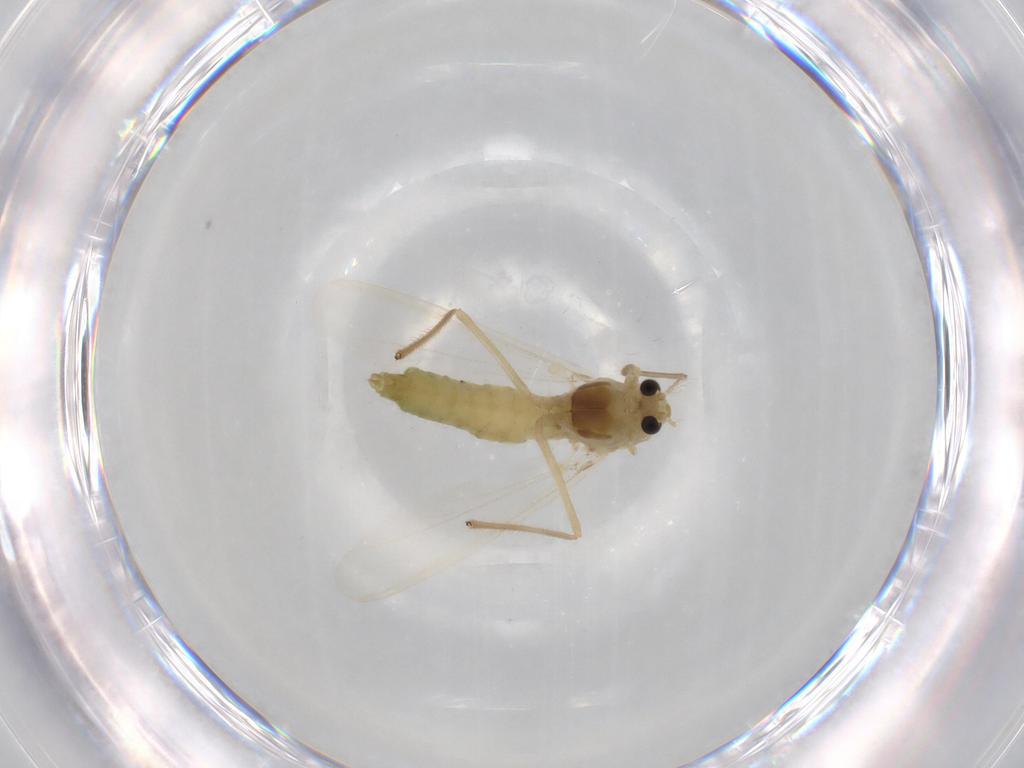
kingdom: Animalia
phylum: Arthropoda
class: Insecta
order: Diptera
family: Chironomidae
